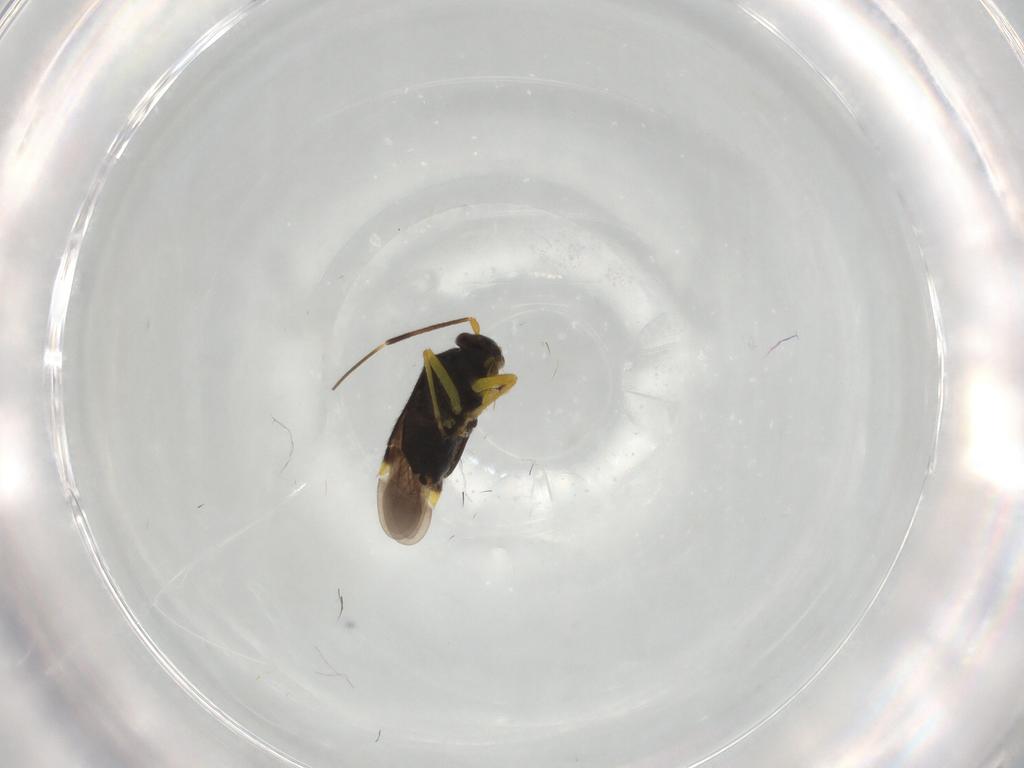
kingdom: Animalia
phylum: Arthropoda
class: Insecta
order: Hemiptera
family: Miridae
